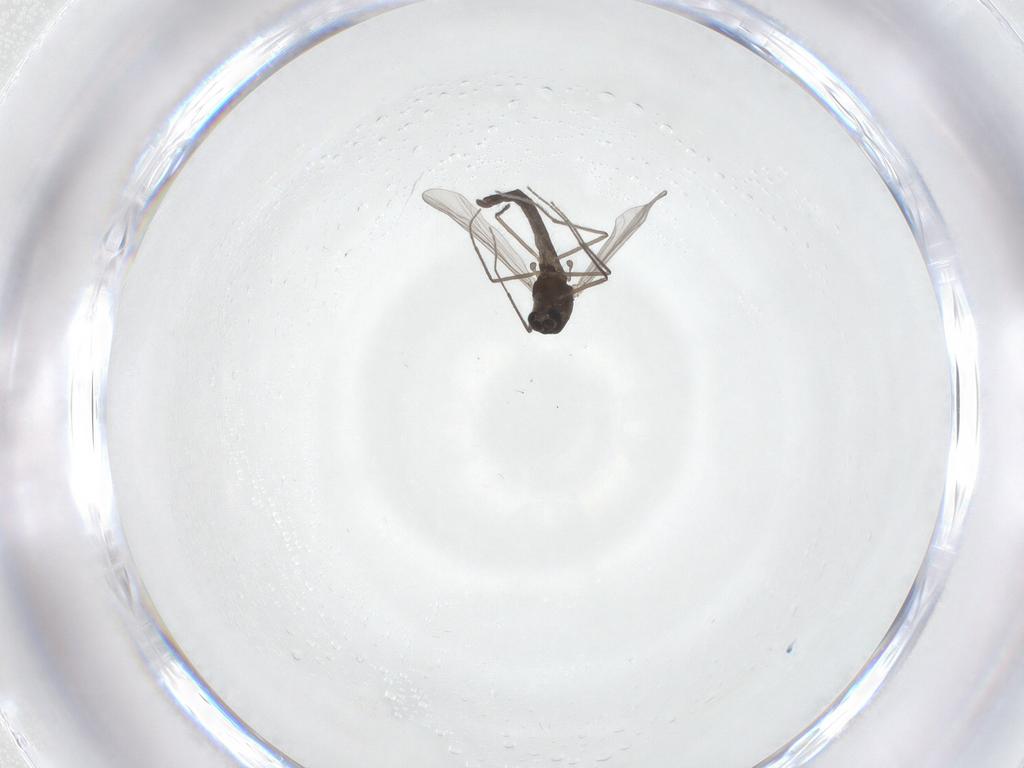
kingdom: Animalia
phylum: Arthropoda
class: Insecta
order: Diptera
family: Chironomidae
